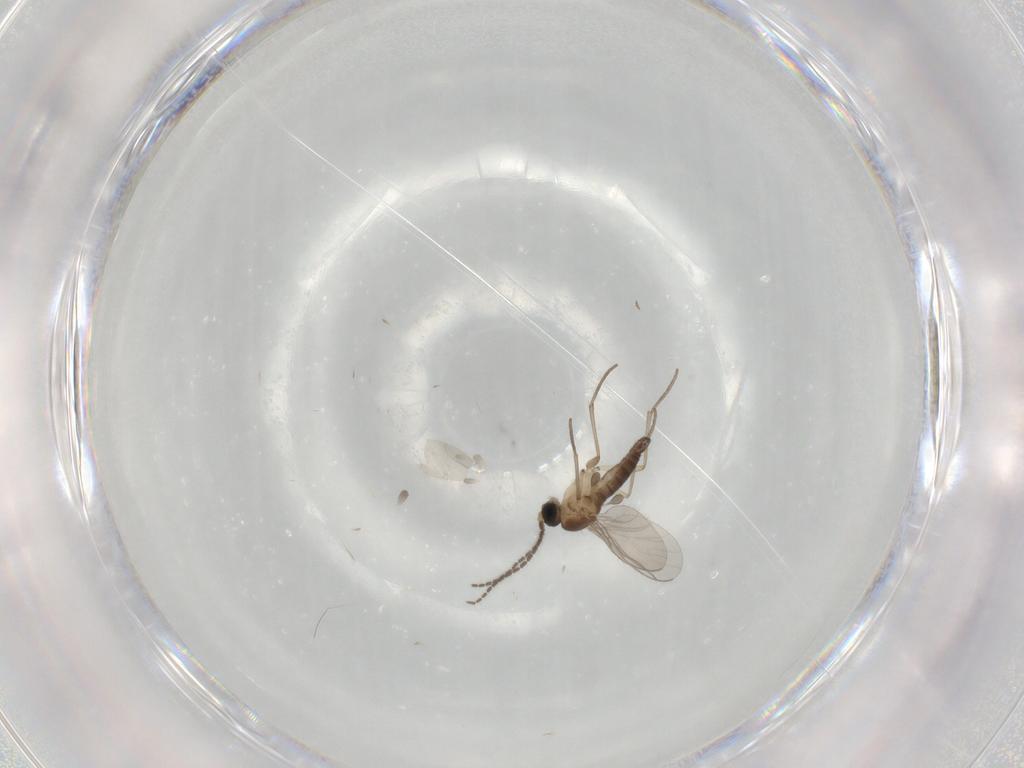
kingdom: Animalia
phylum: Arthropoda
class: Insecta
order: Diptera
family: Sciaridae
